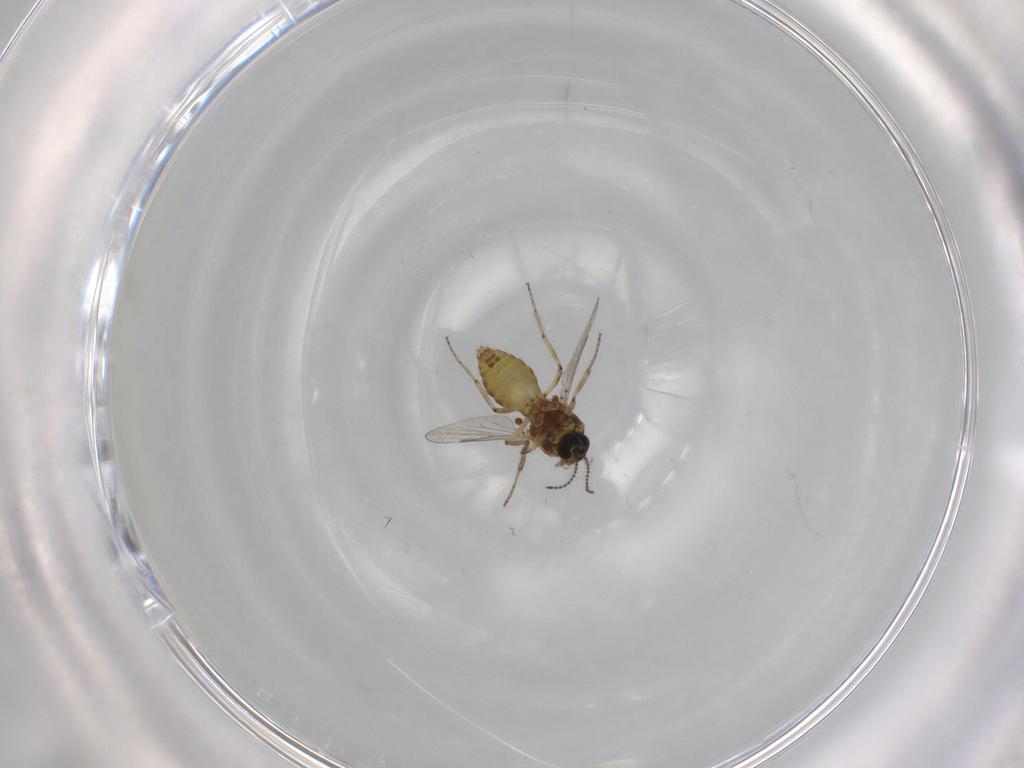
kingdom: Animalia
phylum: Arthropoda
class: Insecta
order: Diptera
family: Ceratopogonidae
